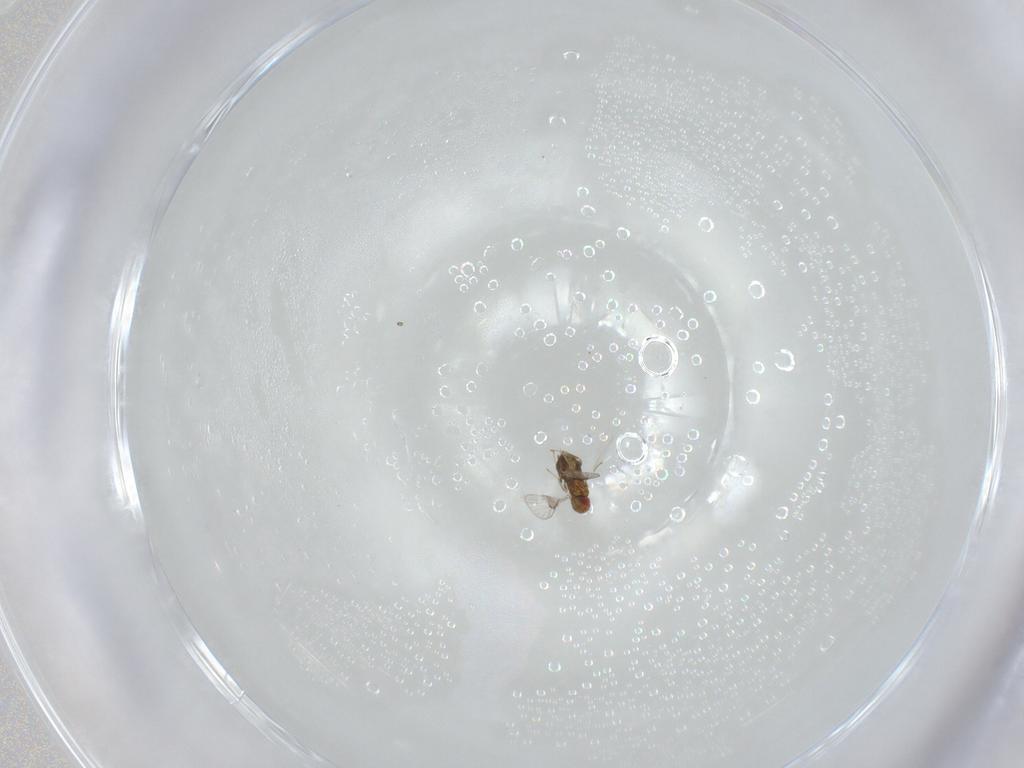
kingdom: Animalia
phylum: Arthropoda
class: Insecta
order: Hymenoptera
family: Trichogrammatidae
